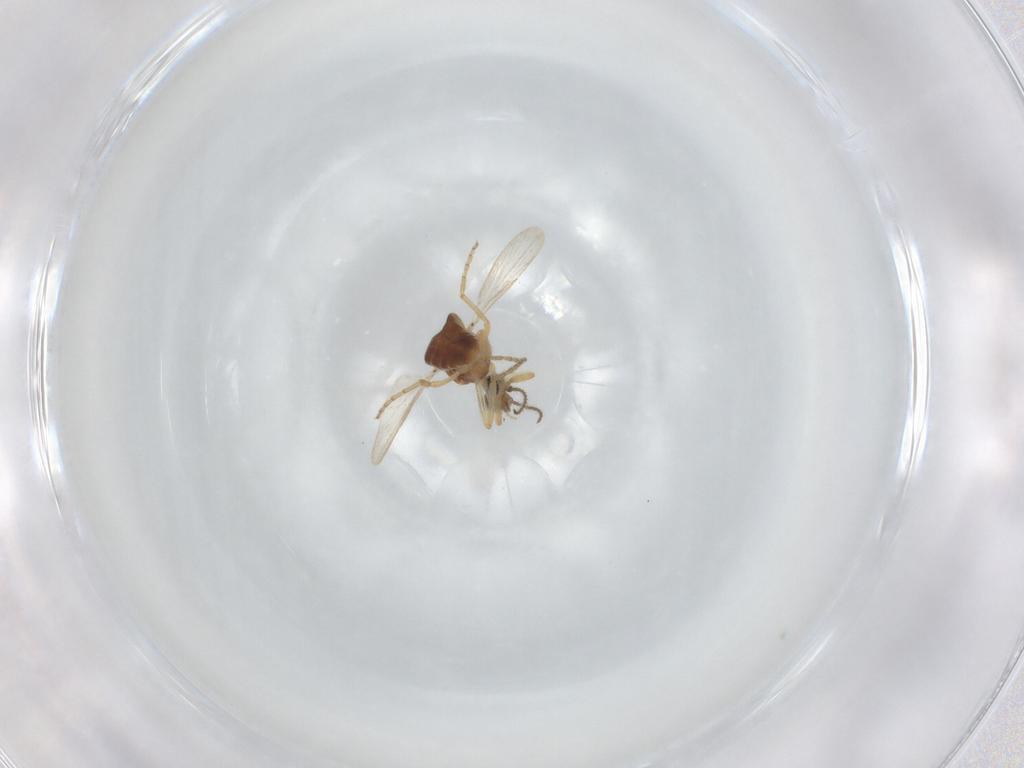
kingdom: Animalia
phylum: Arthropoda
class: Insecta
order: Diptera
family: Ceratopogonidae
